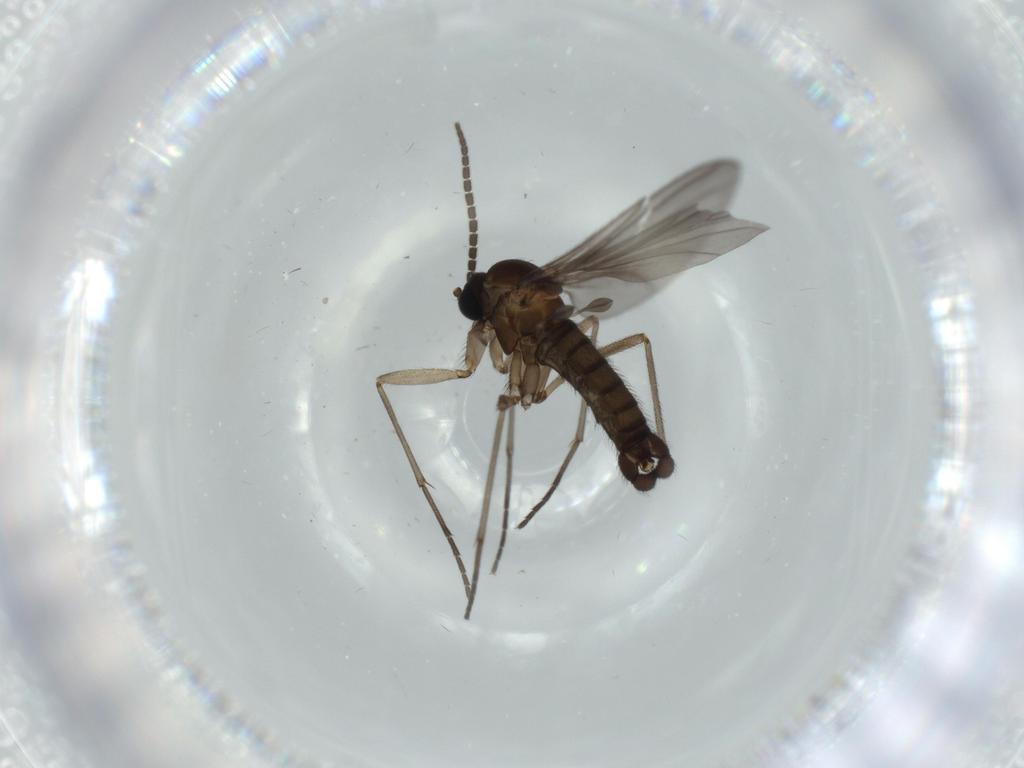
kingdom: Animalia
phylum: Arthropoda
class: Insecta
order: Diptera
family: Sciaridae
